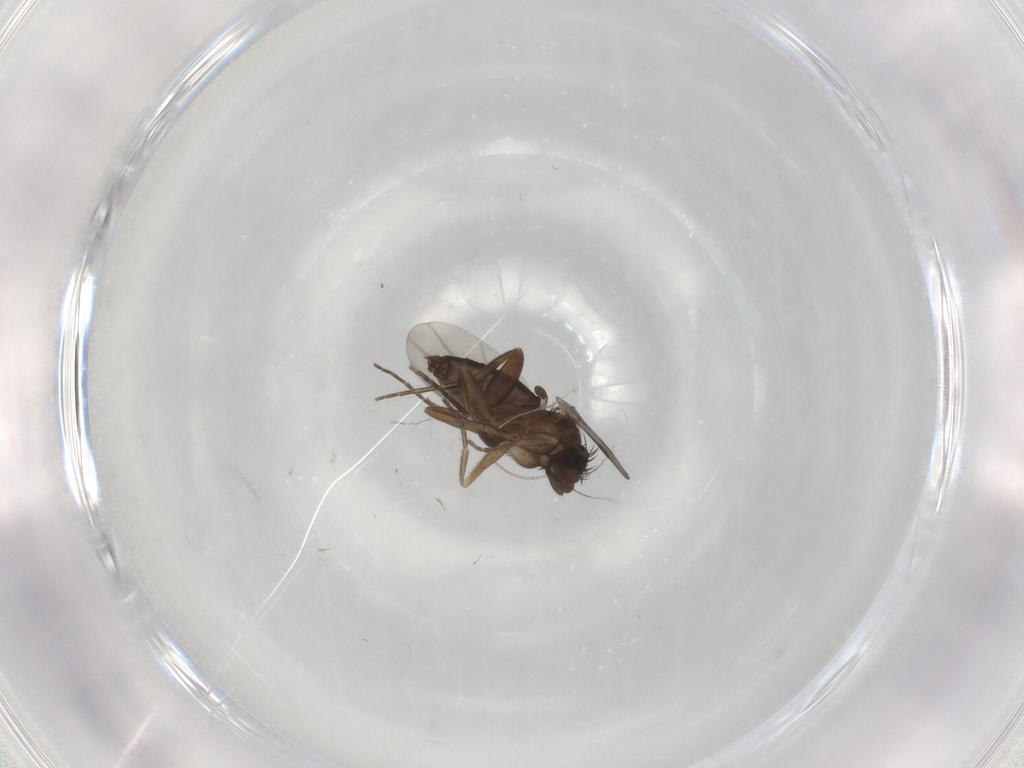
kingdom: Animalia
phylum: Arthropoda
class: Insecta
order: Diptera
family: Phoridae
